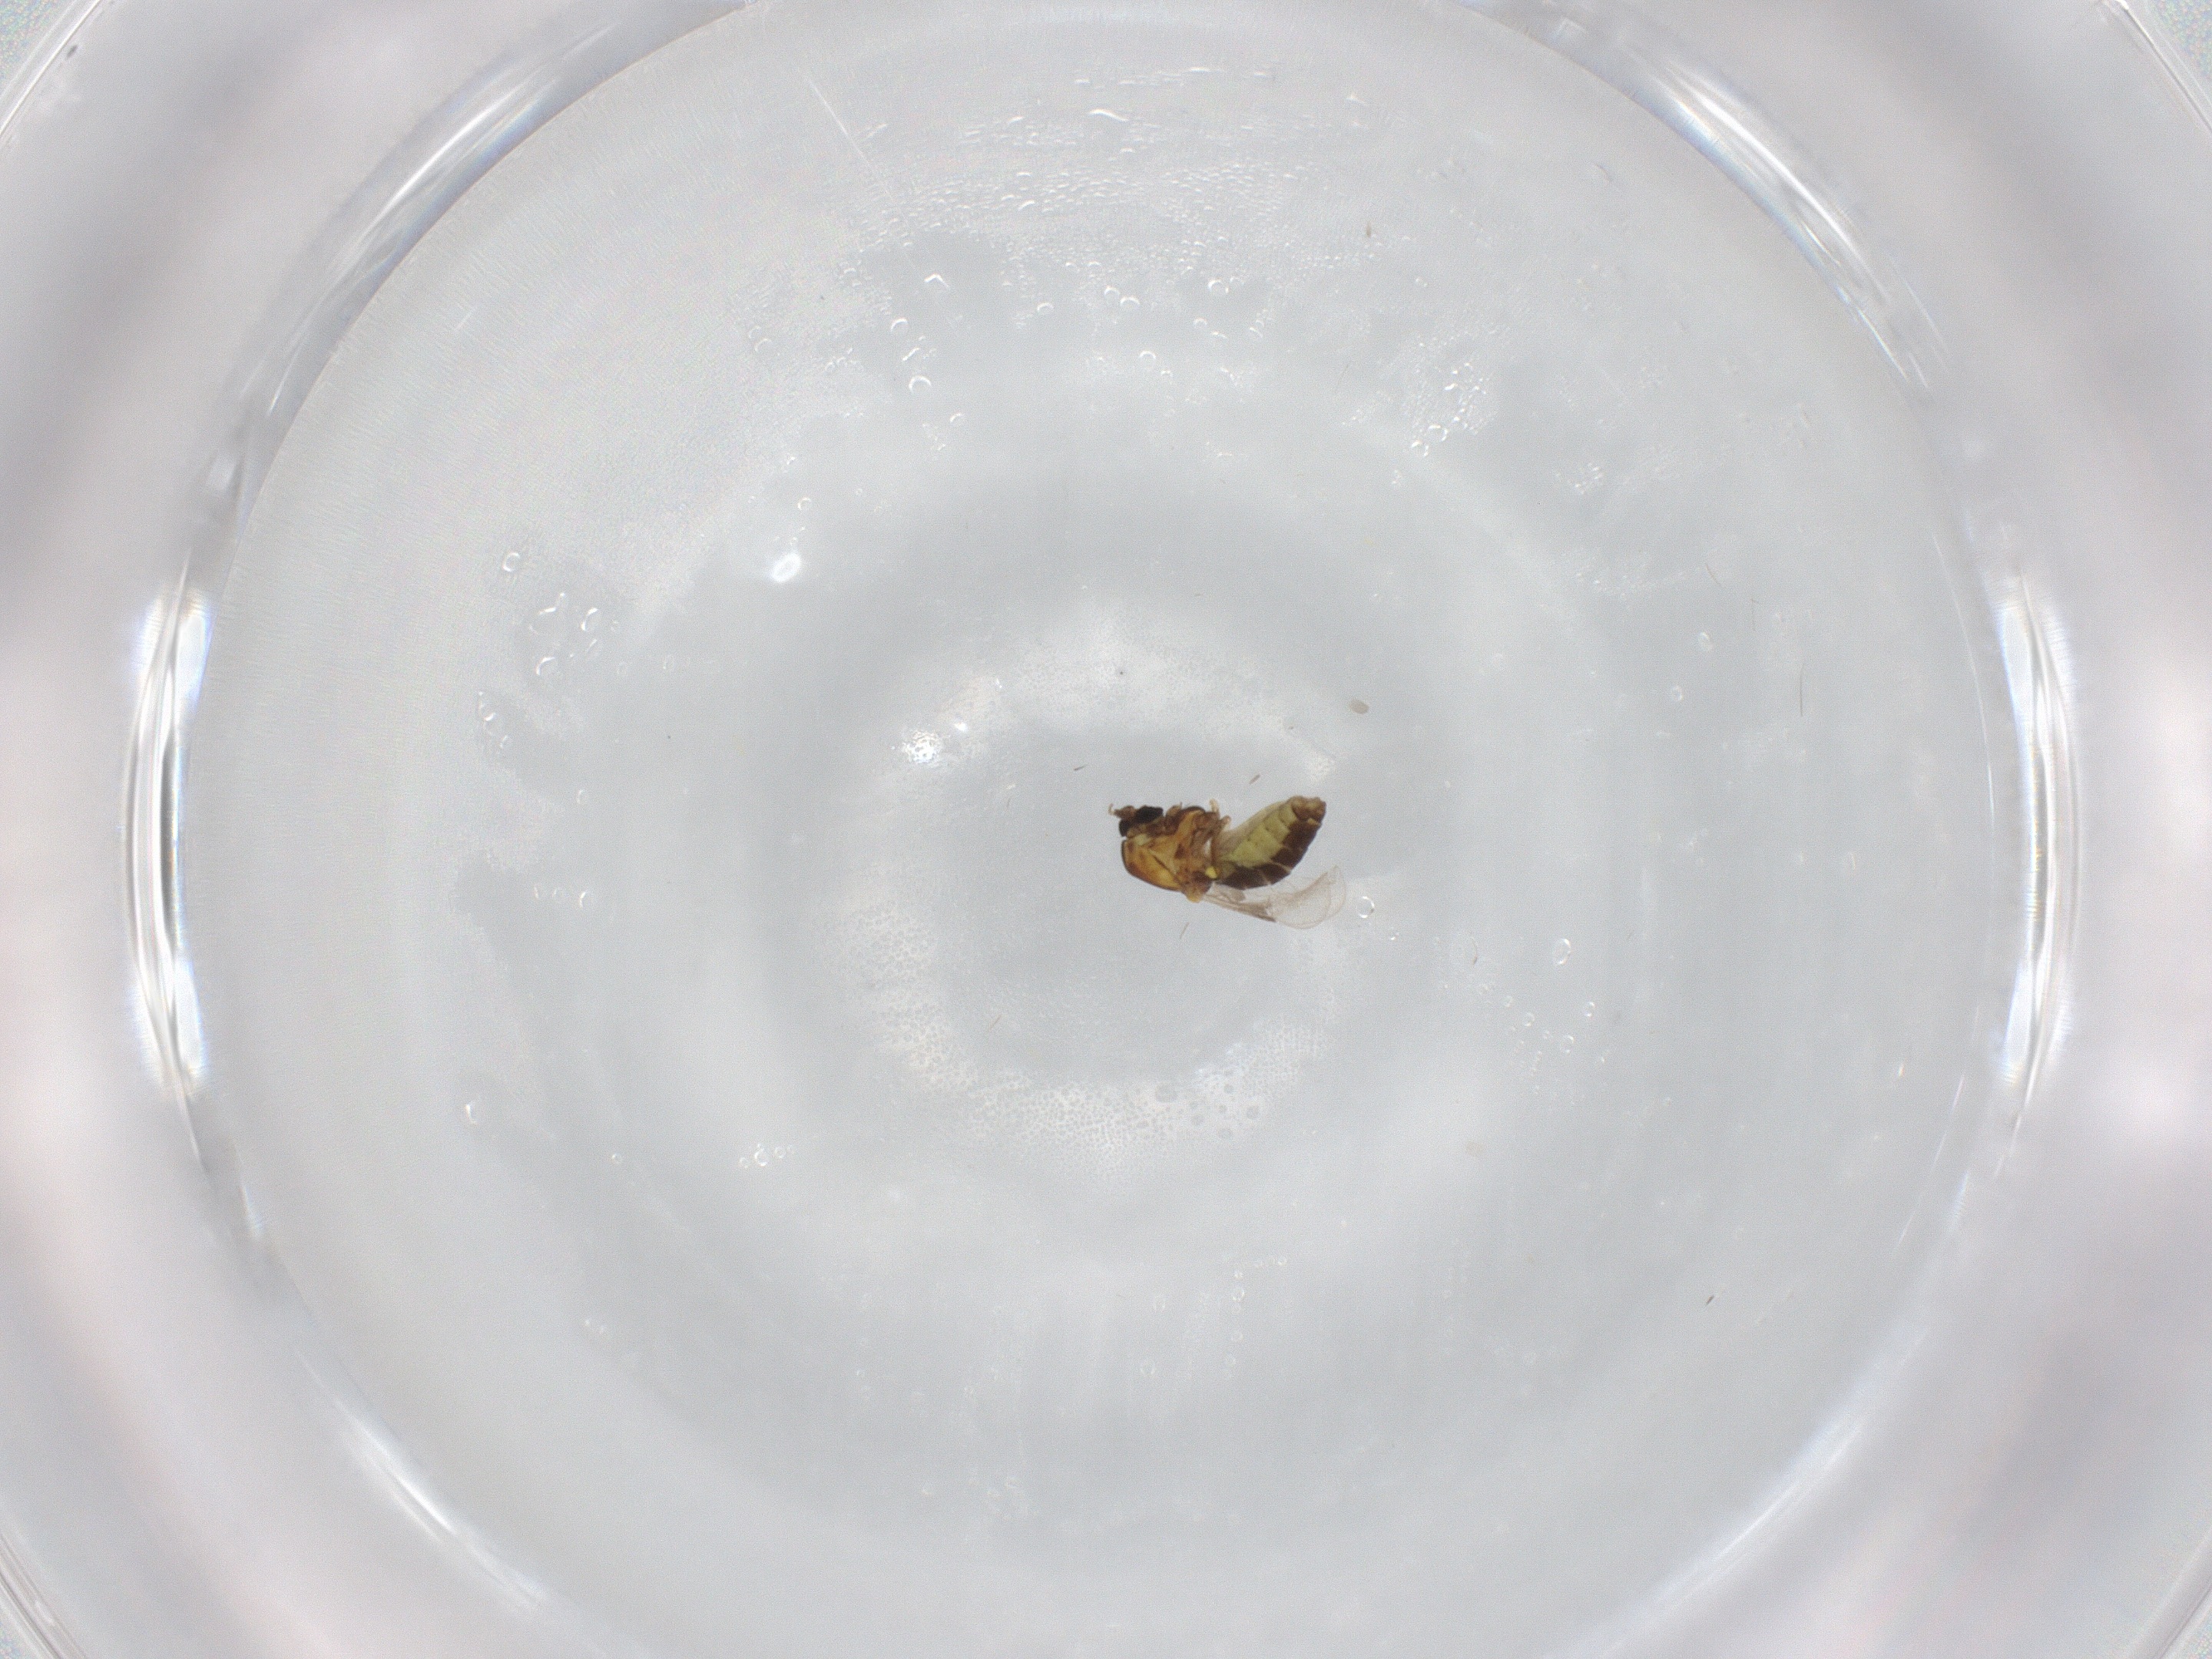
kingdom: Animalia
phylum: Arthropoda
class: Insecta
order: Diptera
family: Ceratopogonidae
